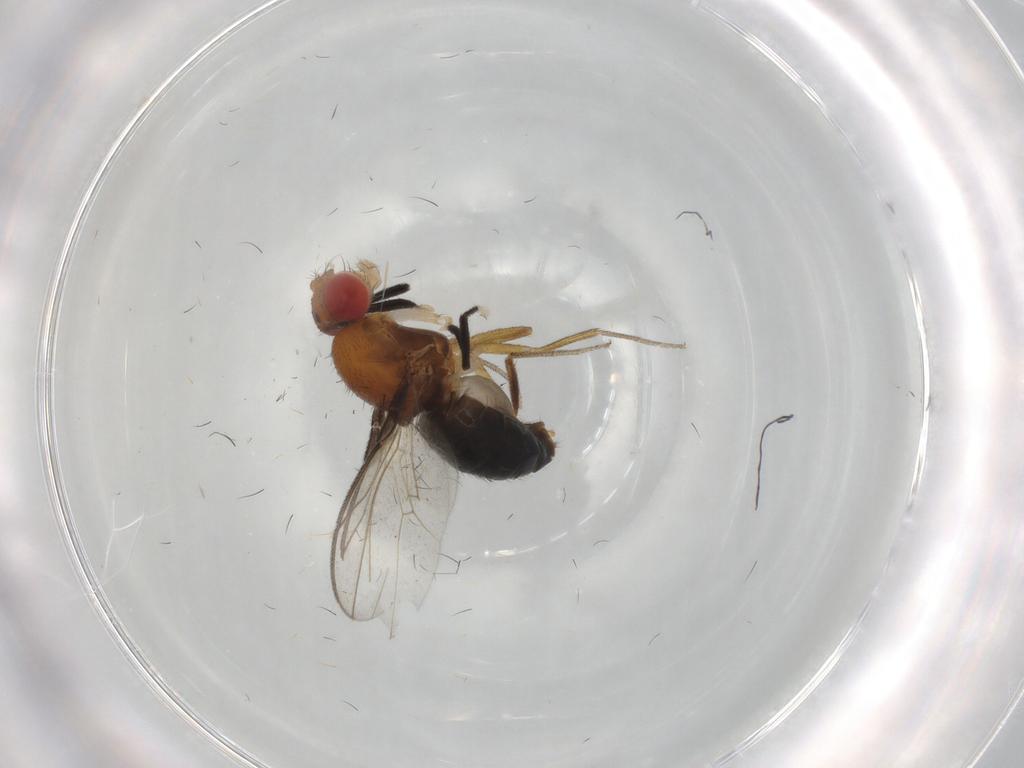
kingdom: Animalia
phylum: Arthropoda
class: Insecta
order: Diptera
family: Drosophilidae
